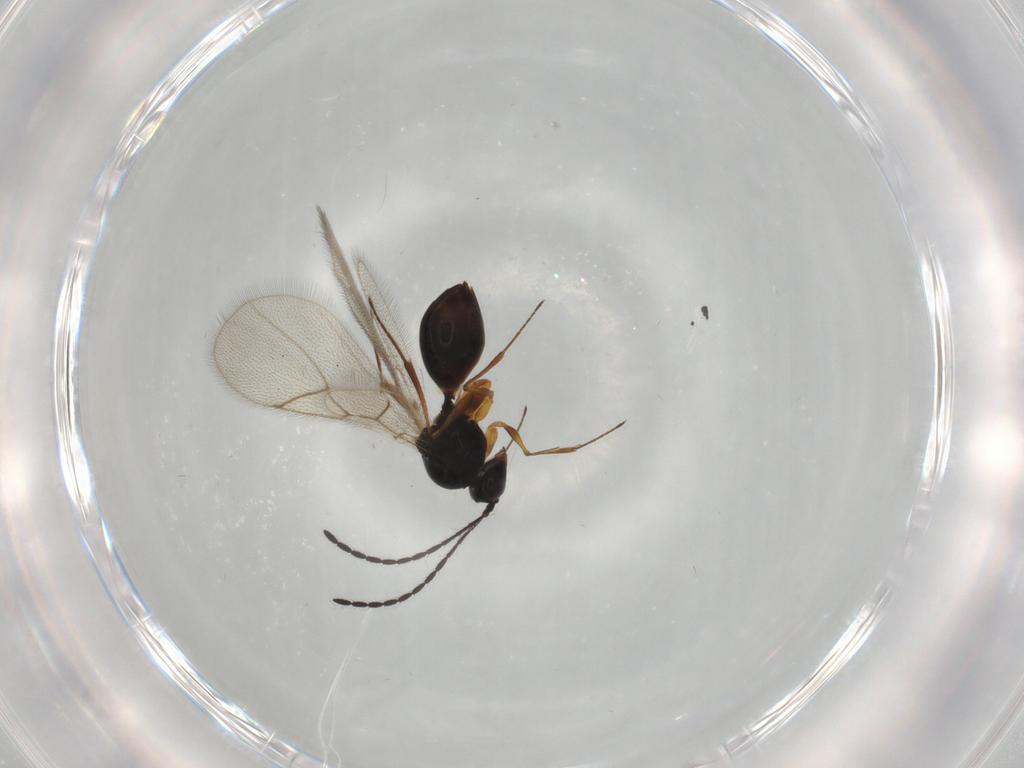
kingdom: Animalia
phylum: Arthropoda
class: Insecta
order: Hymenoptera
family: Figitidae
